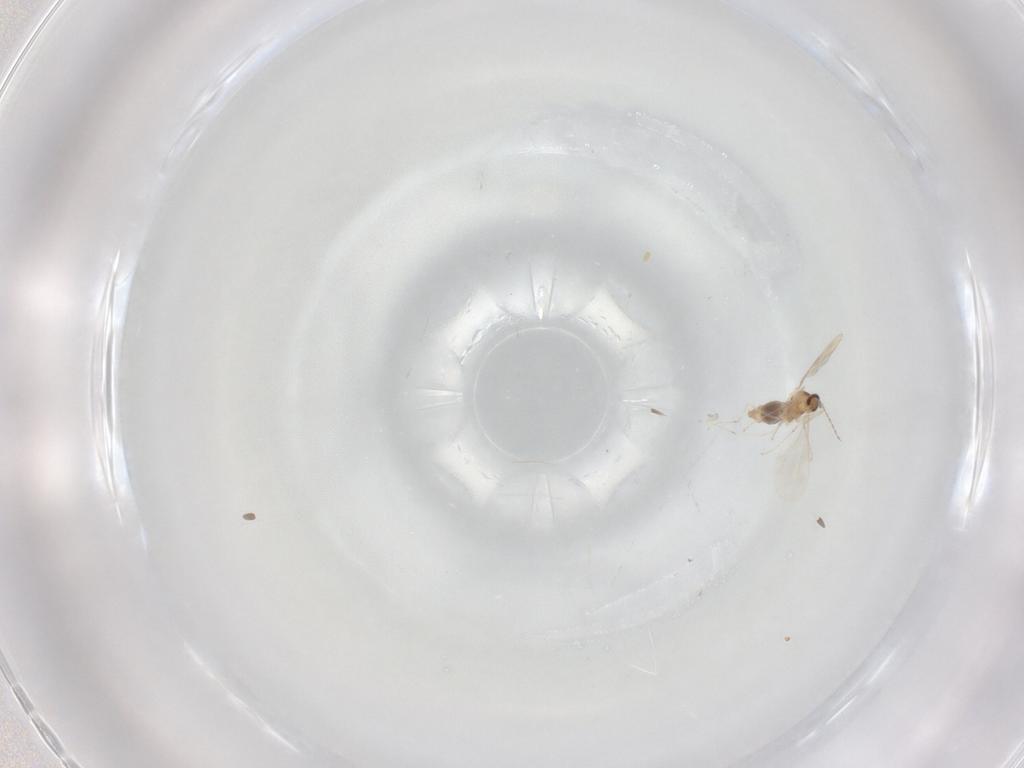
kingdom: Animalia
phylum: Arthropoda
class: Insecta
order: Diptera
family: Cecidomyiidae
